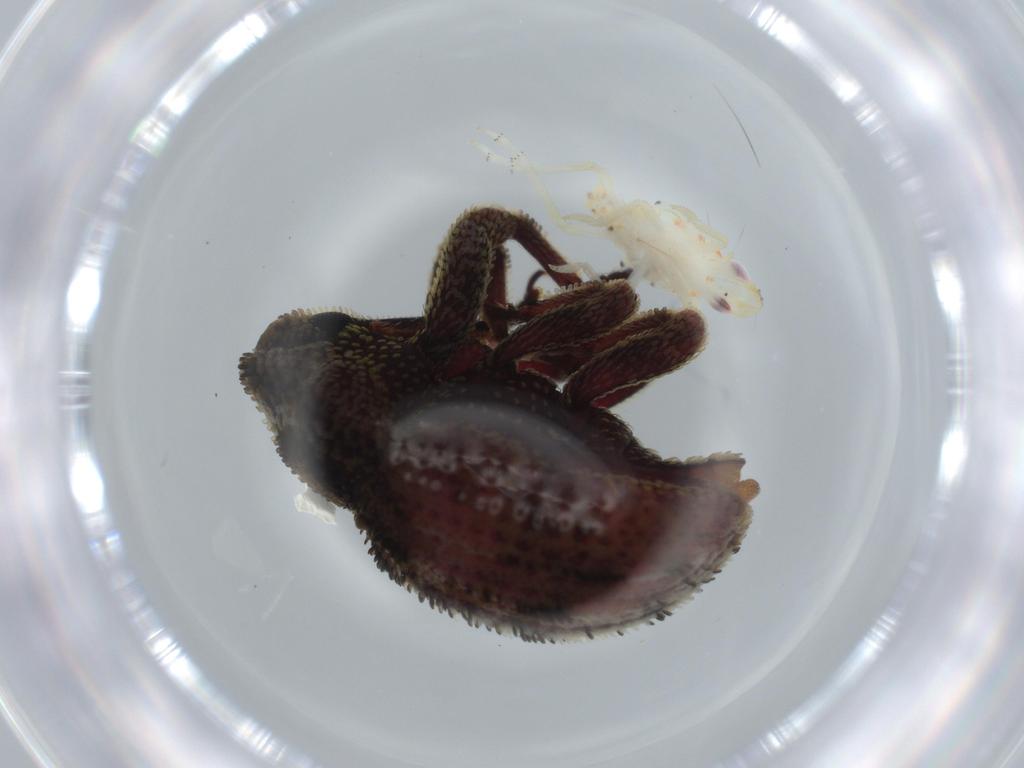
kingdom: Animalia
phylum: Arthropoda
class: Insecta
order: Hemiptera
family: Tropiduchidae
